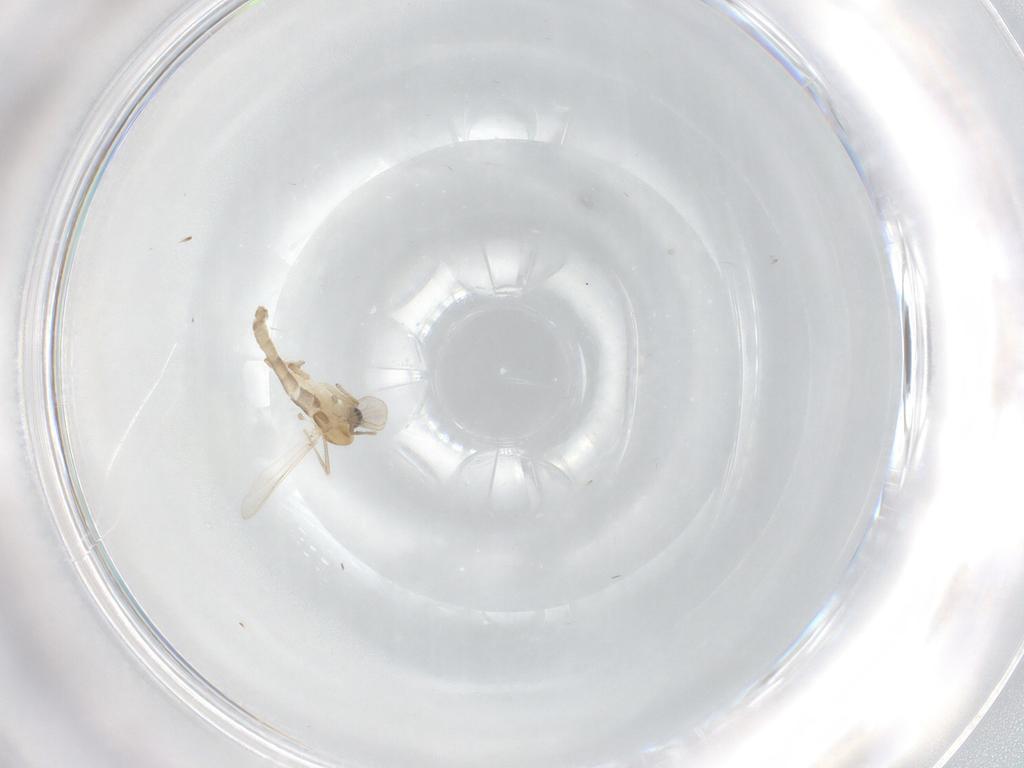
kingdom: Animalia
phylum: Arthropoda
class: Insecta
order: Diptera
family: Chironomidae
